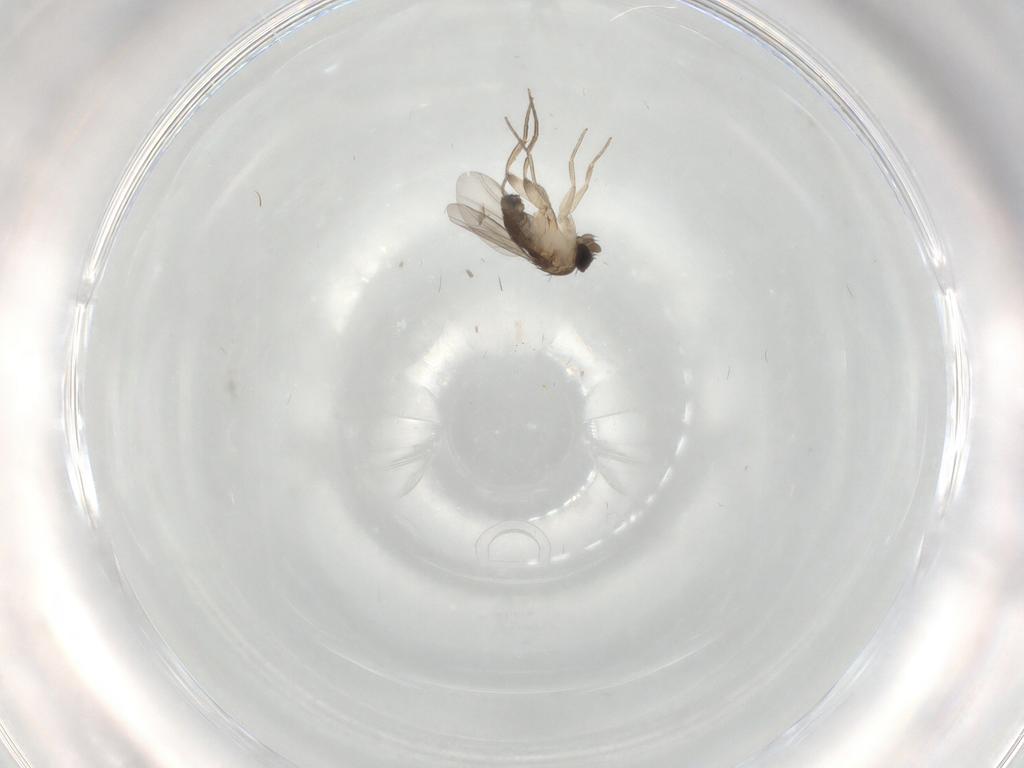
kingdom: Animalia
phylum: Arthropoda
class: Insecta
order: Diptera
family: Phoridae
